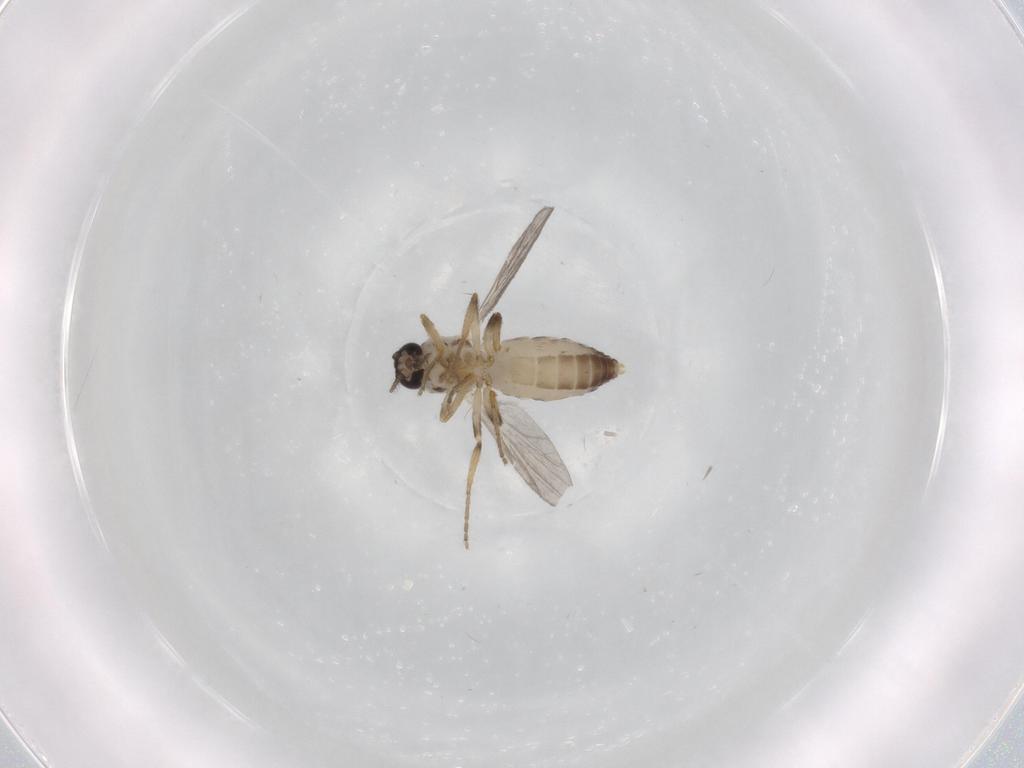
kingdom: Animalia
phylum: Arthropoda
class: Insecta
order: Diptera
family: Ceratopogonidae
